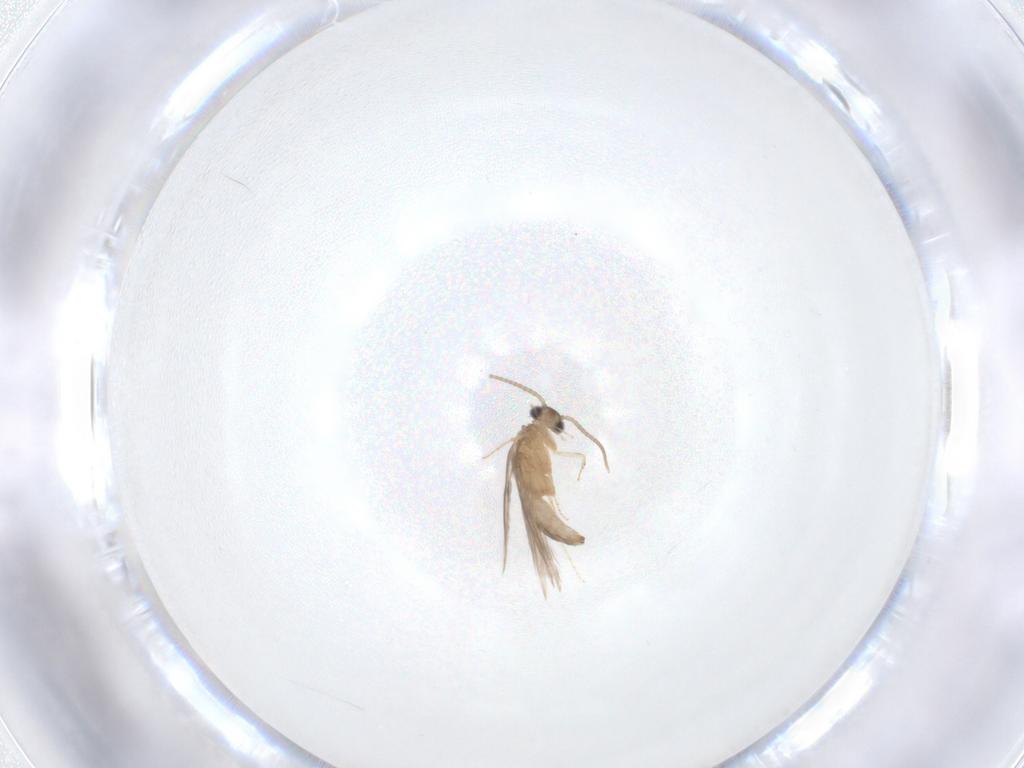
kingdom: Animalia
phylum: Arthropoda
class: Insecta
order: Trichoptera
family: Hydroptilidae
